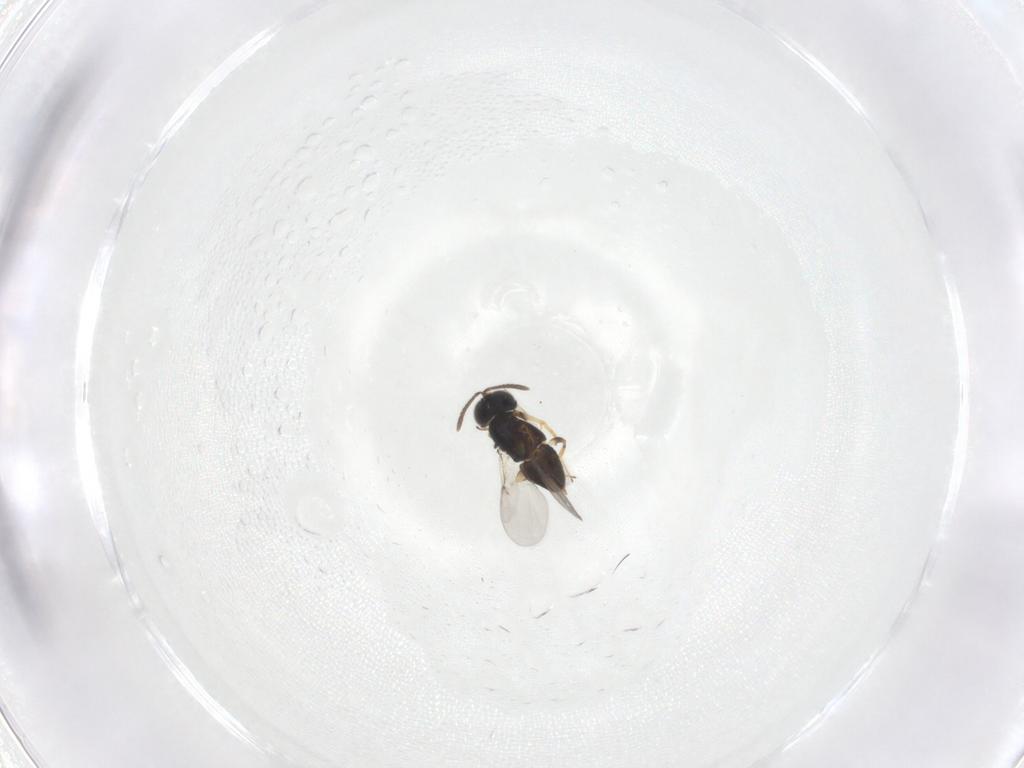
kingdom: Animalia
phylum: Arthropoda
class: Insecta
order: Hymenoptera
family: Encyrtidae
